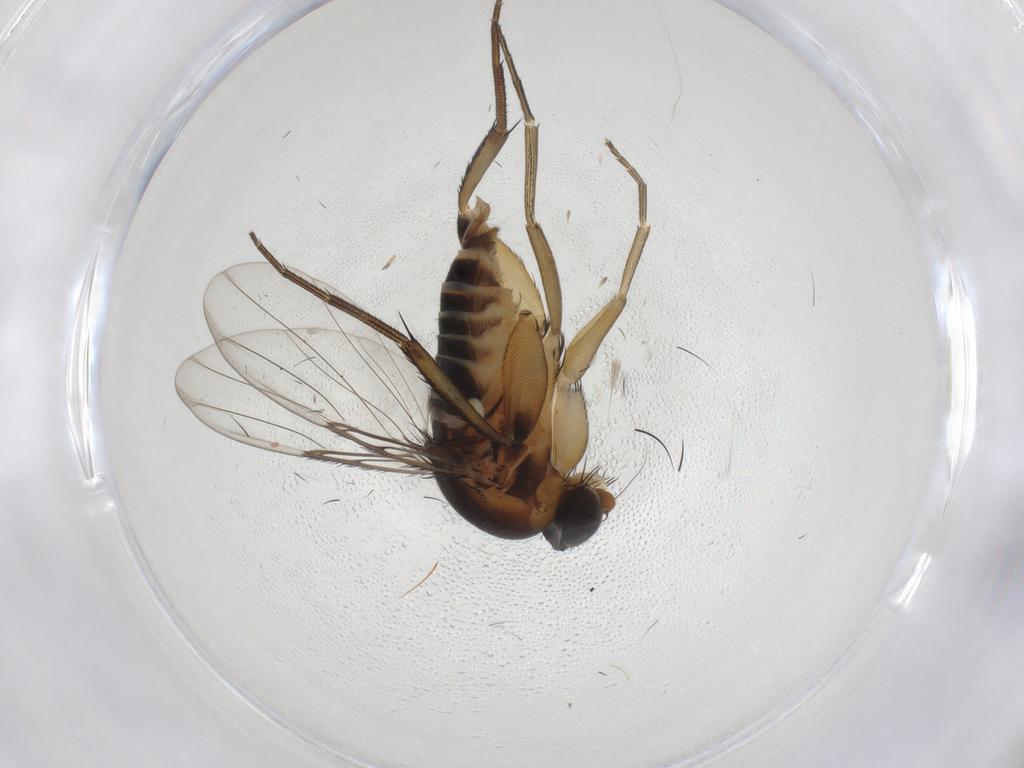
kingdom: Animalia
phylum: Arthropoda
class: Insecta
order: Diptera
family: Phoridae
